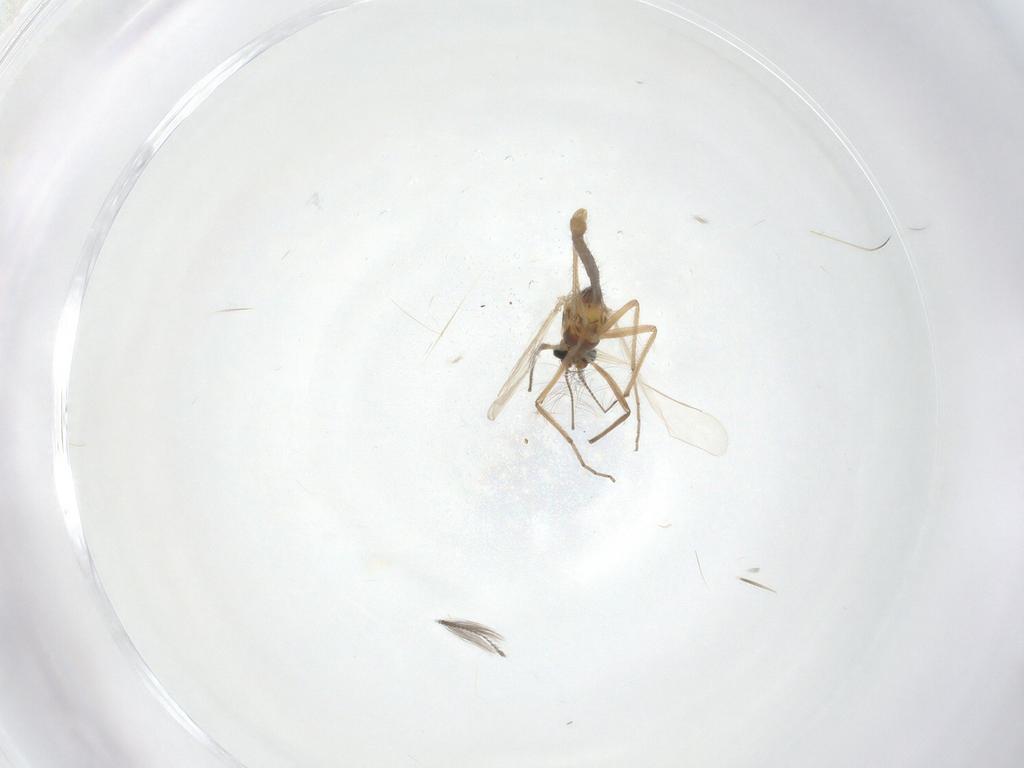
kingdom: Animalia
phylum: Arthropoda
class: Insecta
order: Diptera
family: Chironomidae
